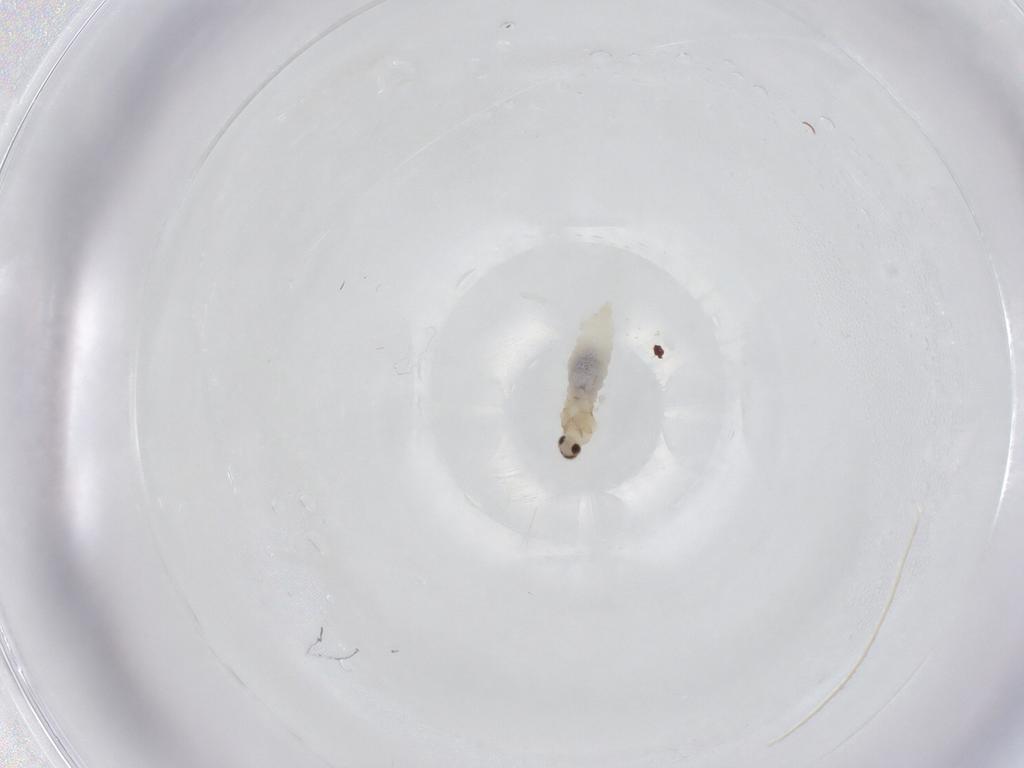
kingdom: Animalia
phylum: Arthropoda
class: Insecta
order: Diptera
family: Cecidomyiidae
